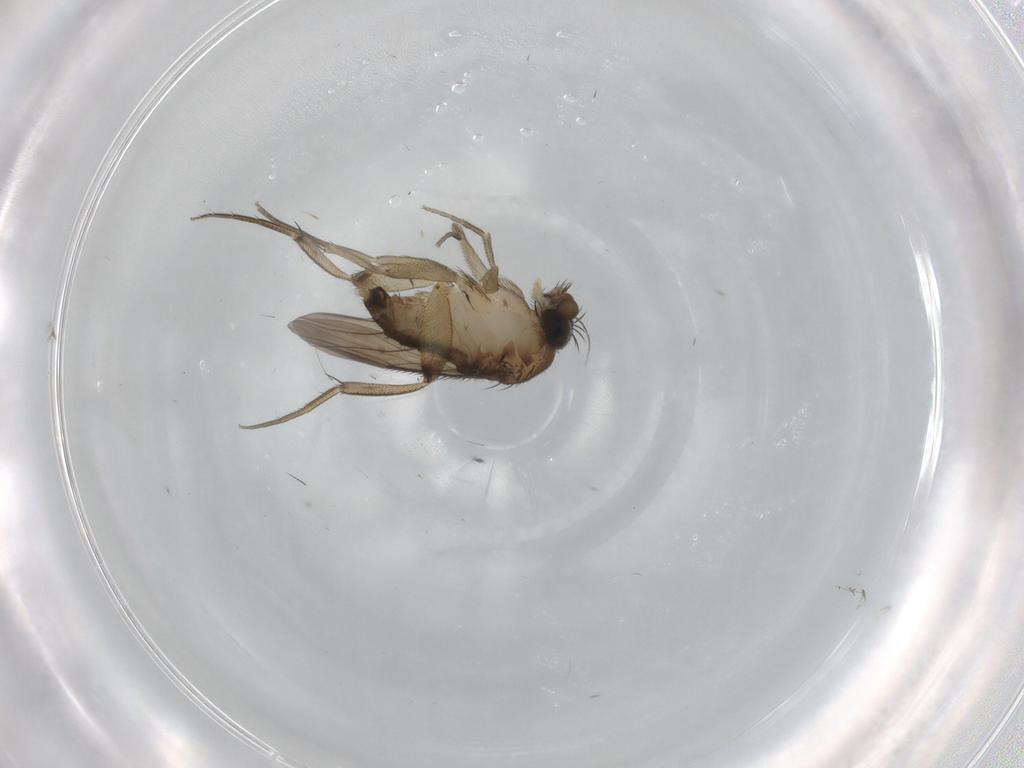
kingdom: Animalia
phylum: Arthropoda
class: Insecta
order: Diptera
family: Phoridae
